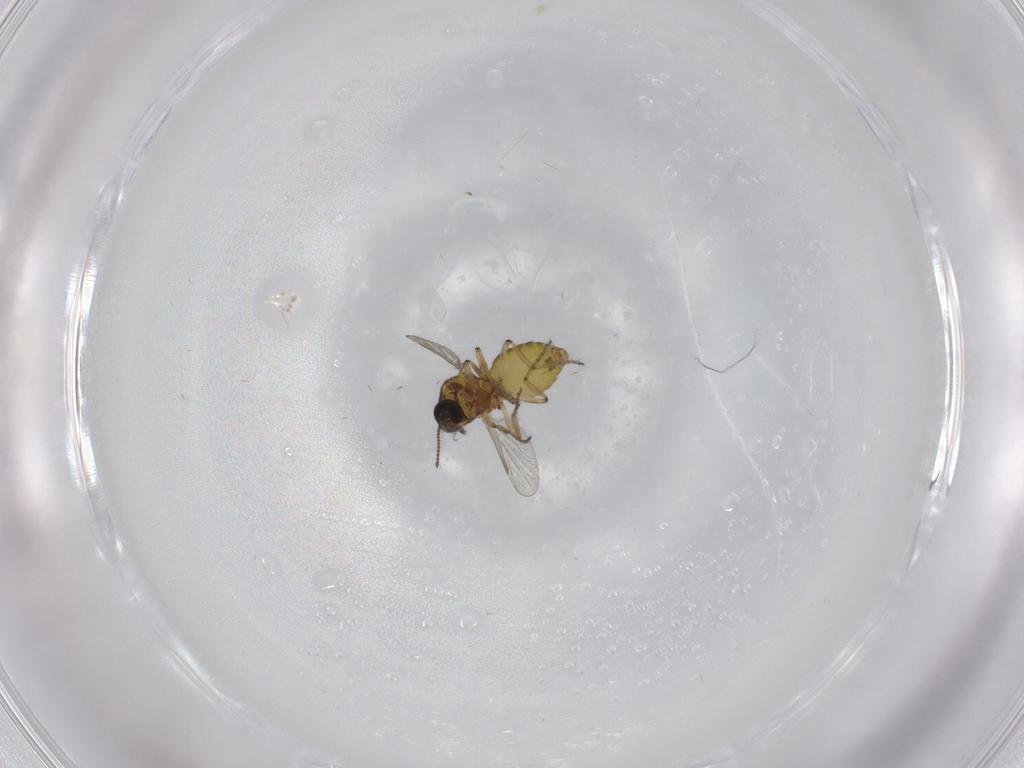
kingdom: Animalia
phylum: Arthropoda
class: Insecta
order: Diptera
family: Ceratopogonidae
